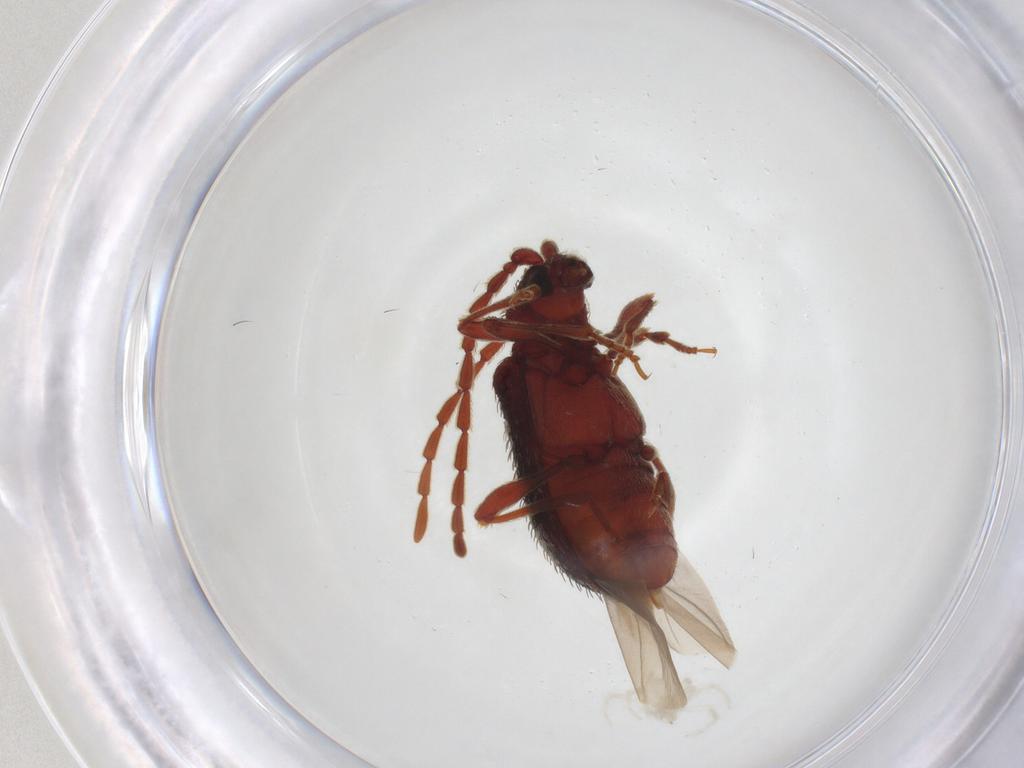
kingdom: Animalia
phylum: Arthropoda
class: Insecta
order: Coleoptera
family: Ptinidae
